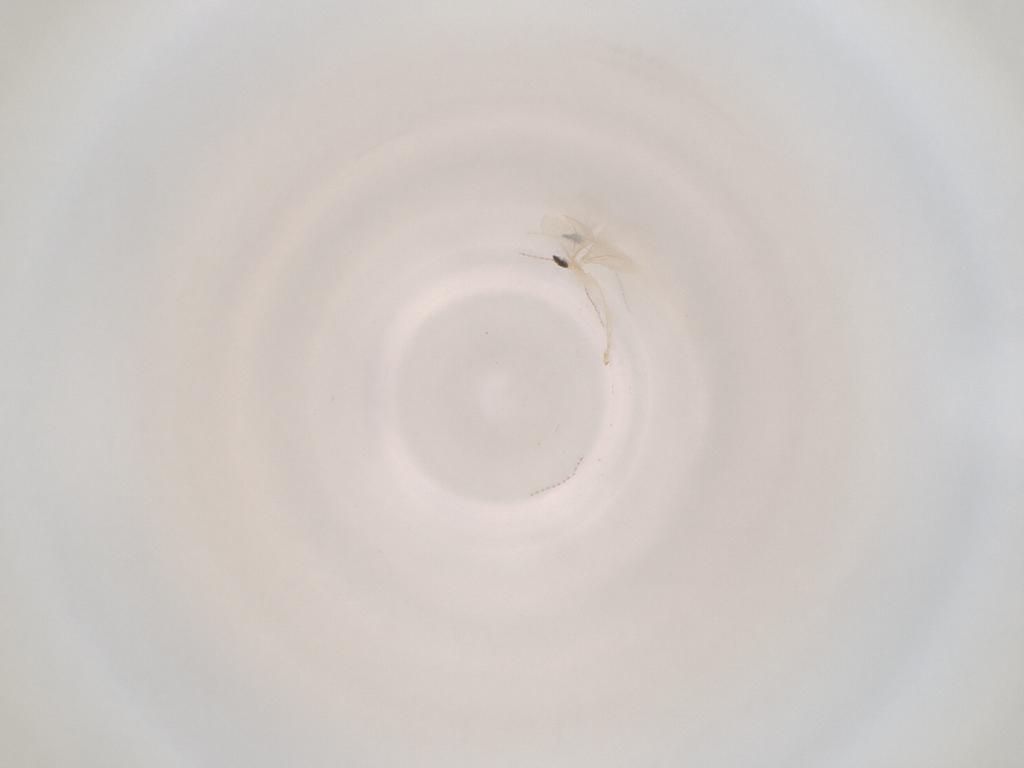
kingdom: Animalia
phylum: Arthropoda
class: Insecta
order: Diptera
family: Cecidomyiidae
